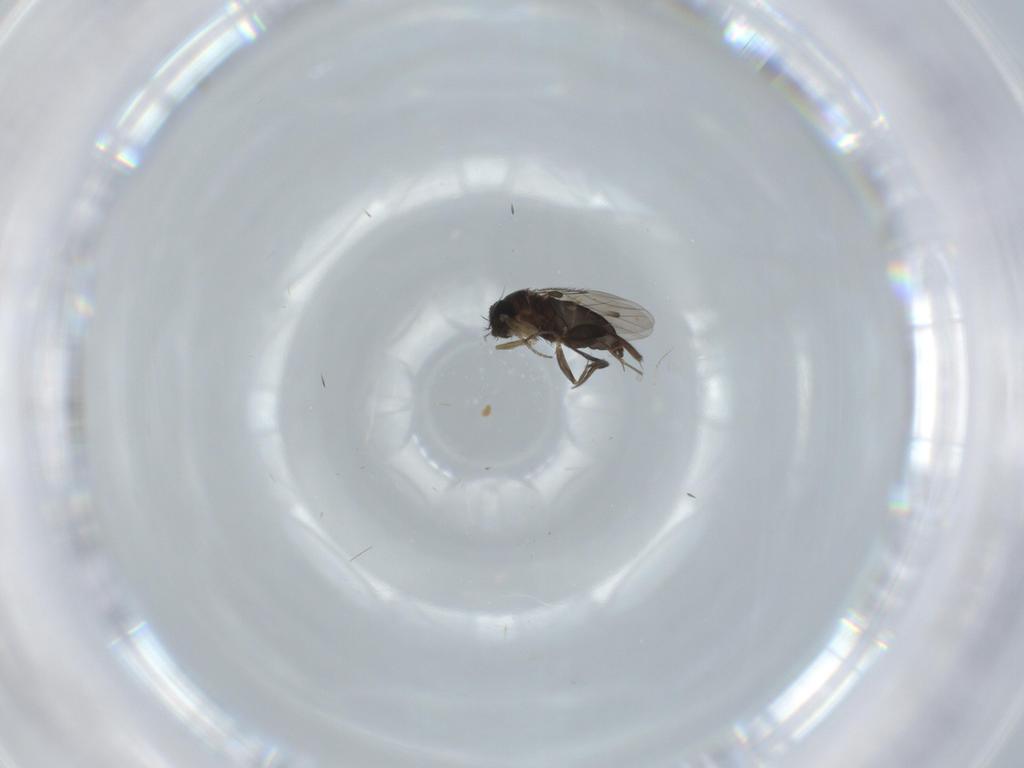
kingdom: Animalia
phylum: Arthropoda
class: Insecta
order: Diptera
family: Phoridae
